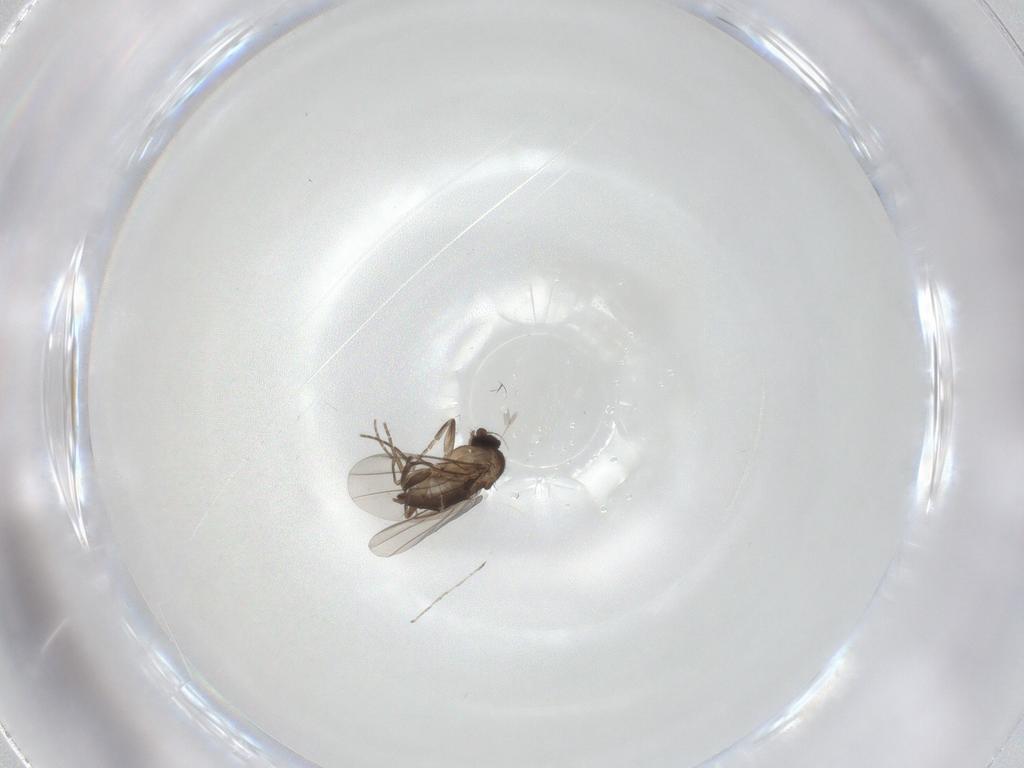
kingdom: Animalia
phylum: Arthropoda
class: Insecta
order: Diptera
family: Phoridae
